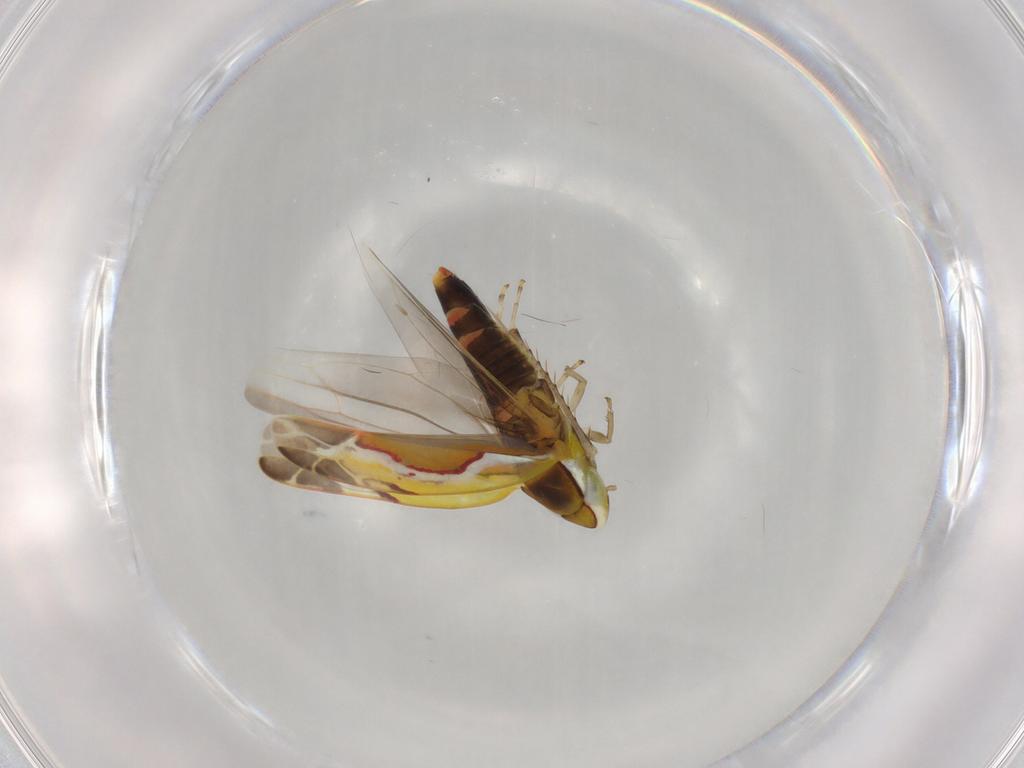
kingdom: Animalia
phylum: Arthropoda
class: Insecta
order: Hemiptera
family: Cicadellidae
